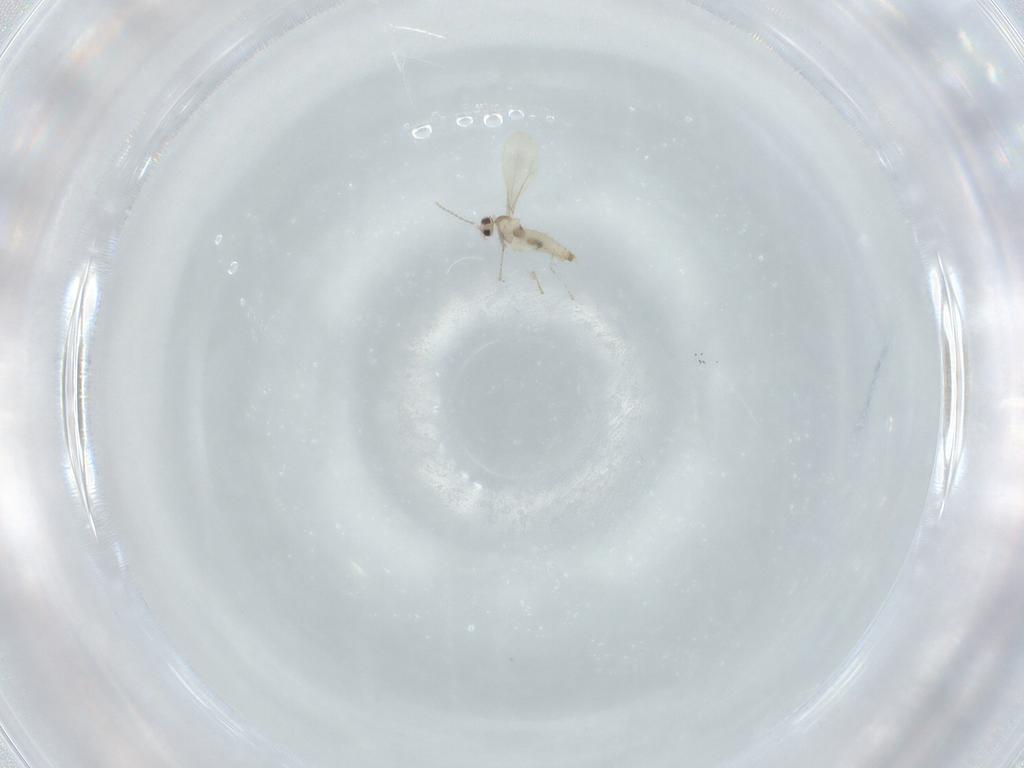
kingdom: Animalia
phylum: Arthropoda
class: Insecta
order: Diptera
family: Cecidomyiidae
